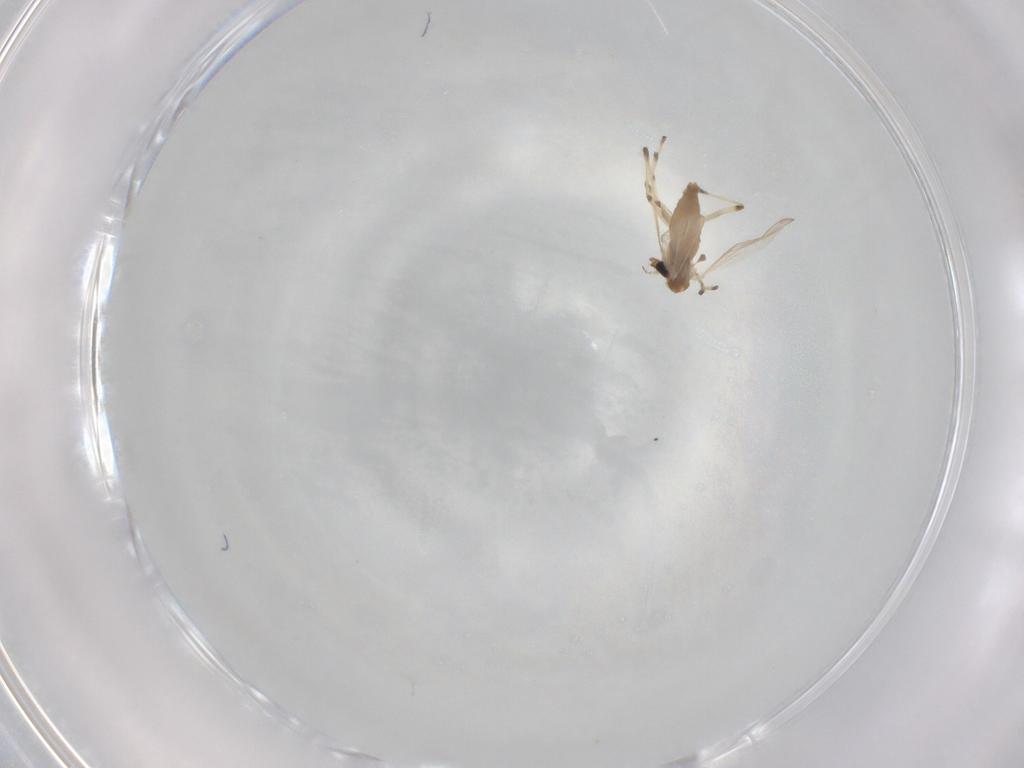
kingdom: Animalia
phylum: Arthropoda
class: Insecta
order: Diptera
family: Chironomidae
